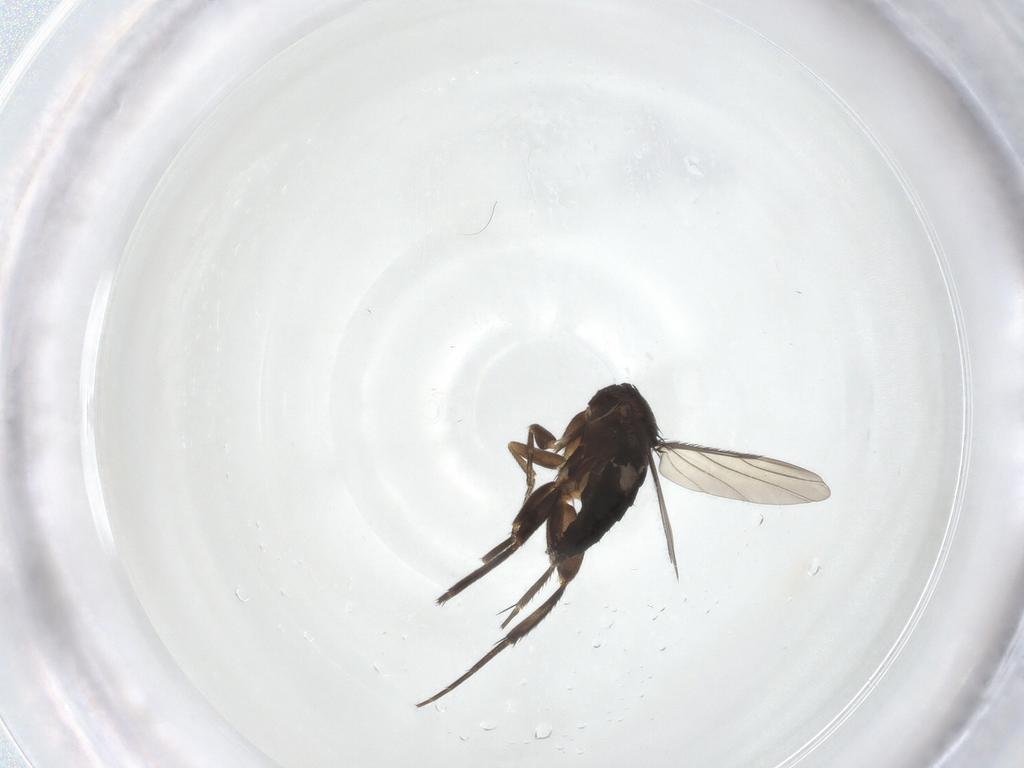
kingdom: Animalia
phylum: Arthropoda
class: Insecta
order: Diptera
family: Phoridae
